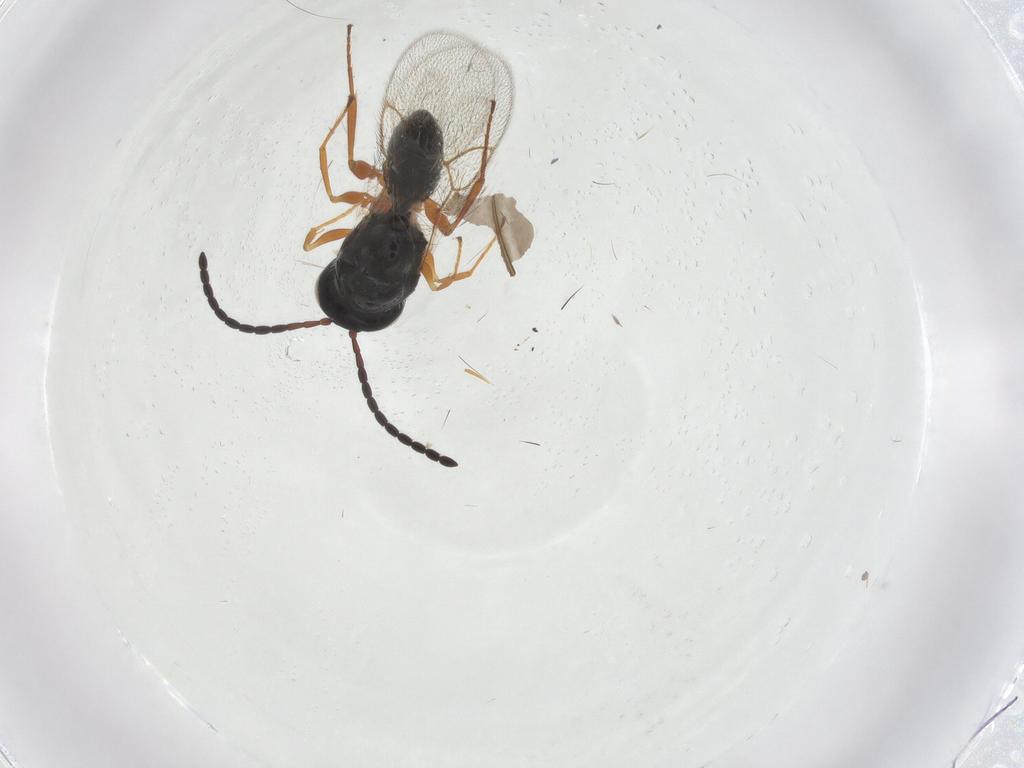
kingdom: Animalia
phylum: Arthropoda
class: Insecta
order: Hymenoptera
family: Figitidae
